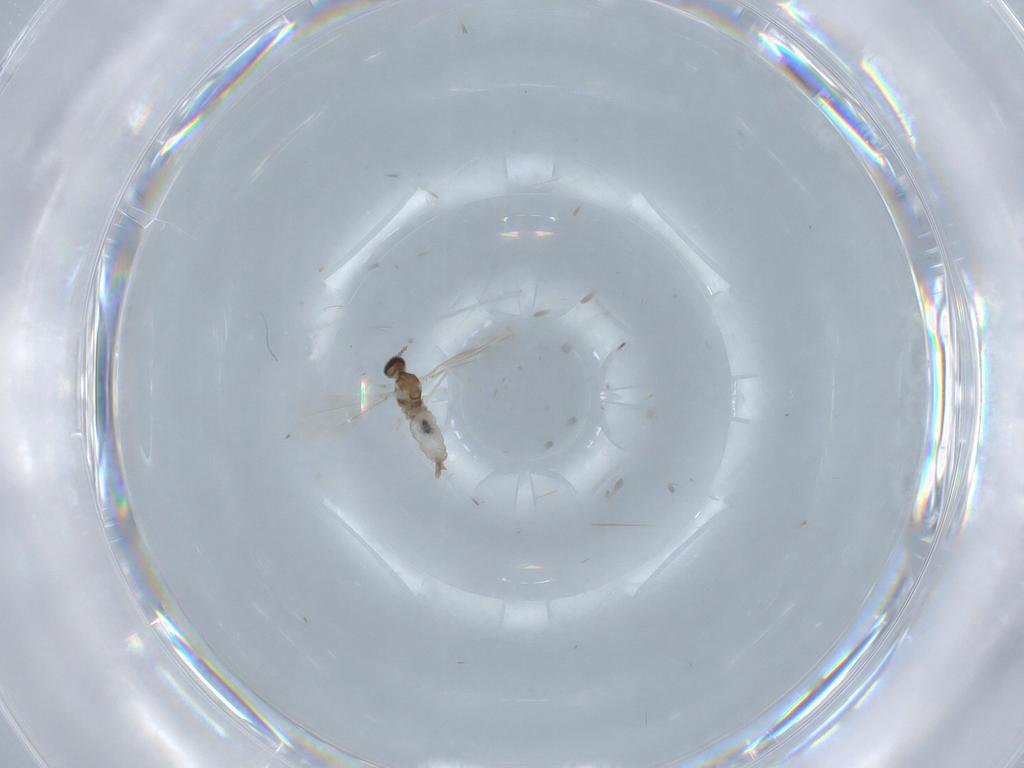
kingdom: Animalia
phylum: Arthropoda
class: Insecta
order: Diptera
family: Cecidomyiidae
